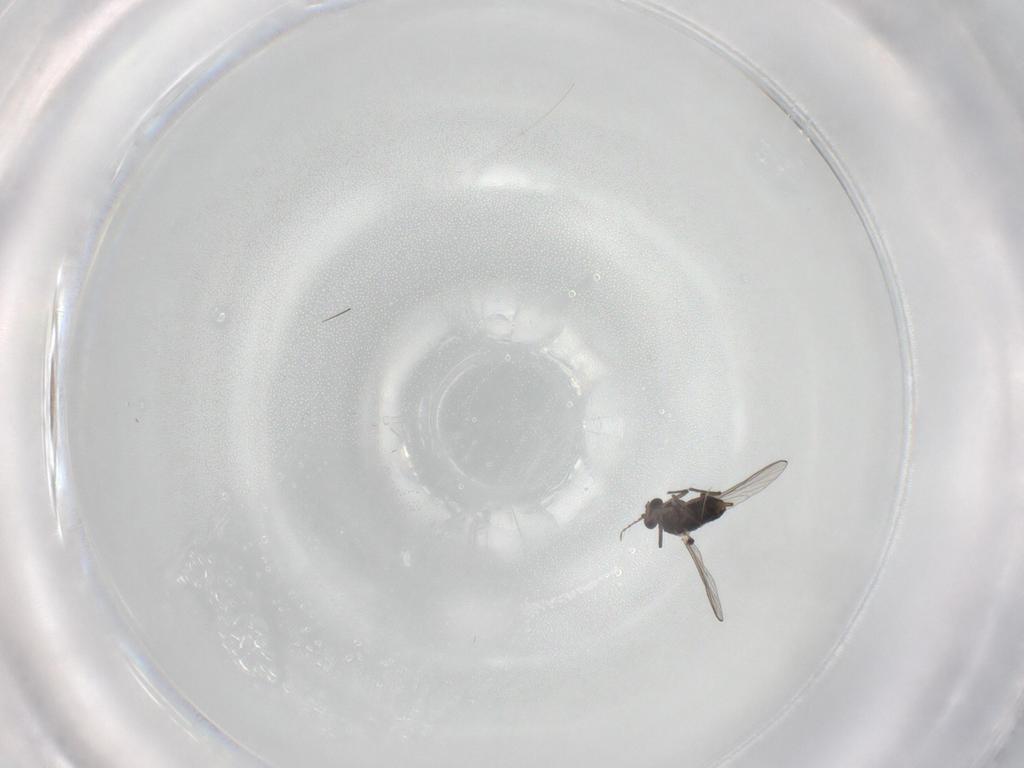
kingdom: Animalia
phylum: Arthropoda
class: Insecta
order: Diptera
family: Chironomidae
